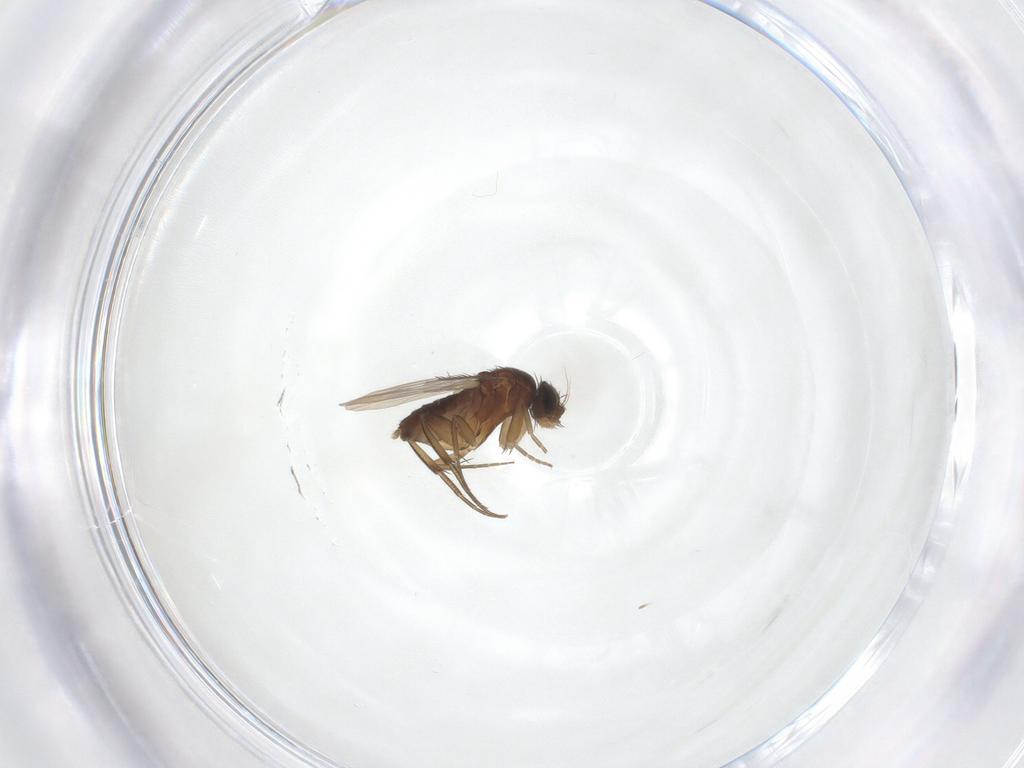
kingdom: Animalia
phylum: Arthropoda
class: Insecta
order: Diptera
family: Phoridae
